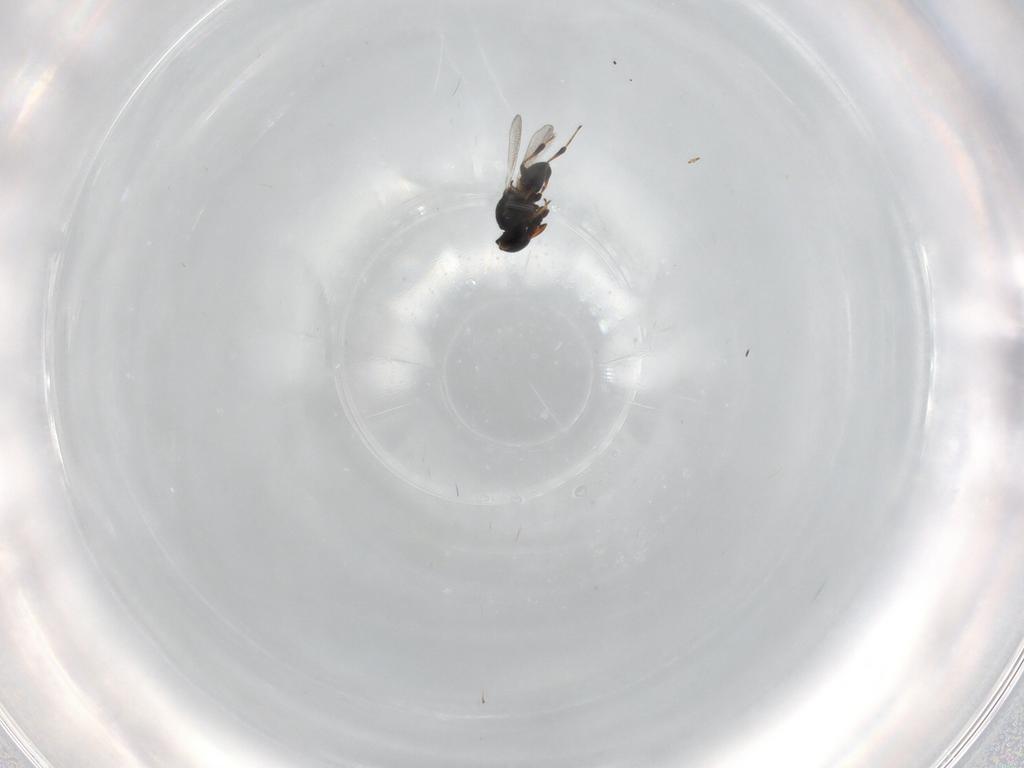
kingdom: Animalia
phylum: Arthropoda
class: Insecta
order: Hymenoptera
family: Platygastridae
